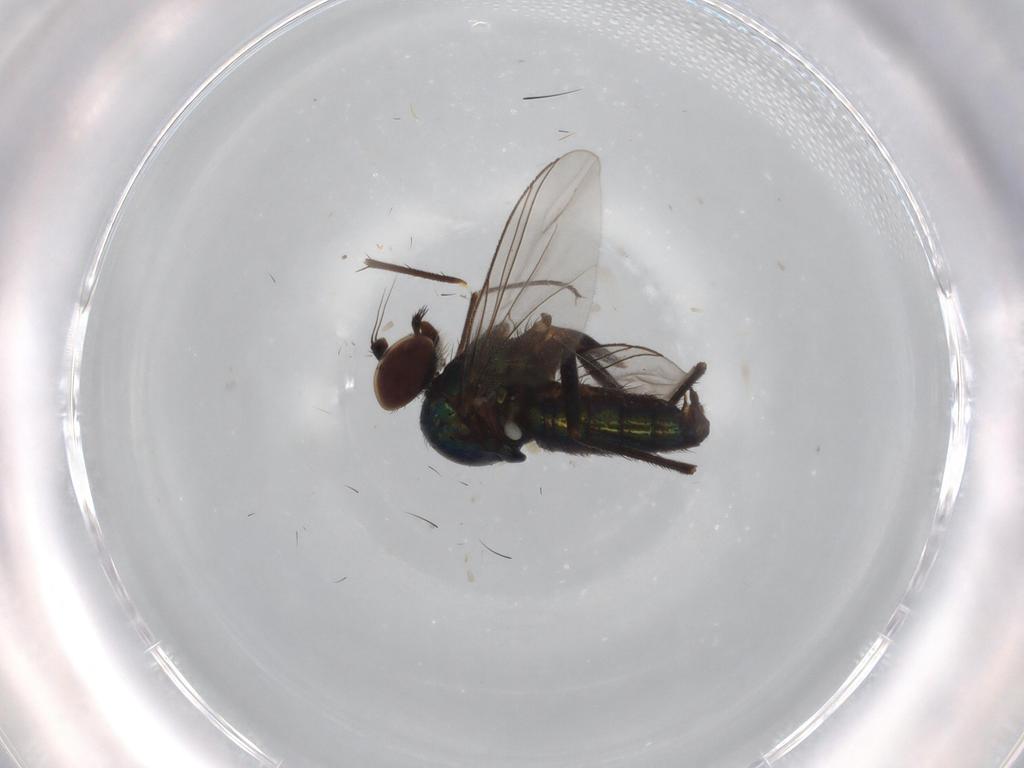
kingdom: Animalia
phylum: Arthropoda
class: Insecta
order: Diptera
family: Dolichopodidae
